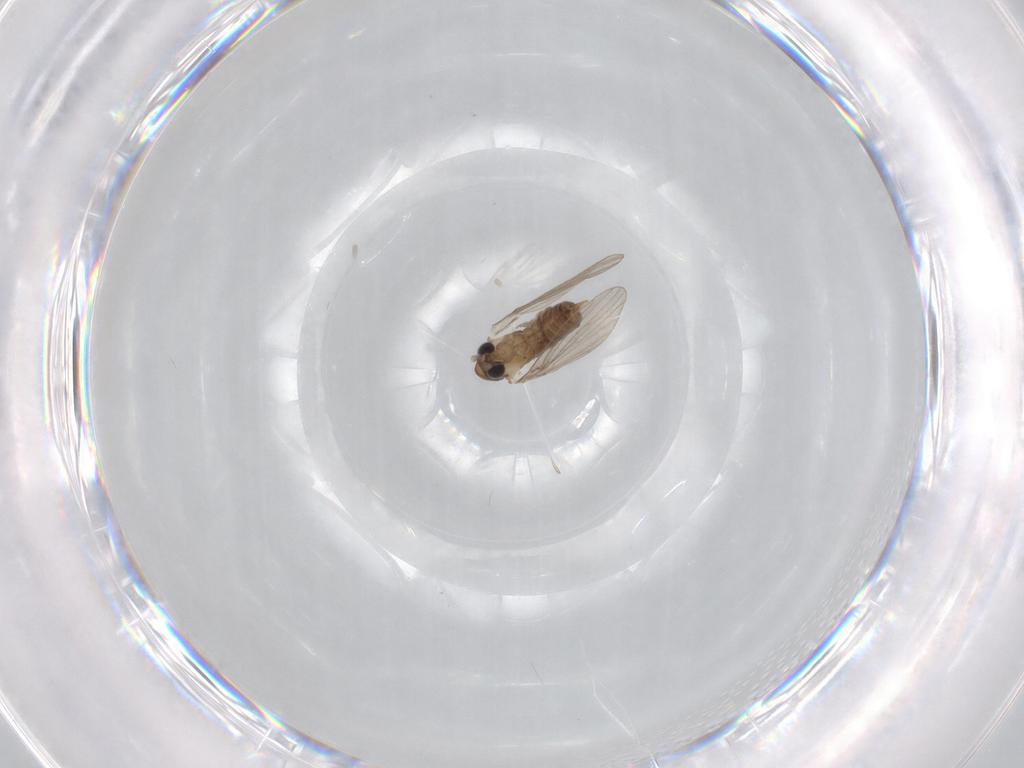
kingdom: Animalia
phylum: Arthropoda
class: Insecta
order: Diptera
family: Psychodidae
